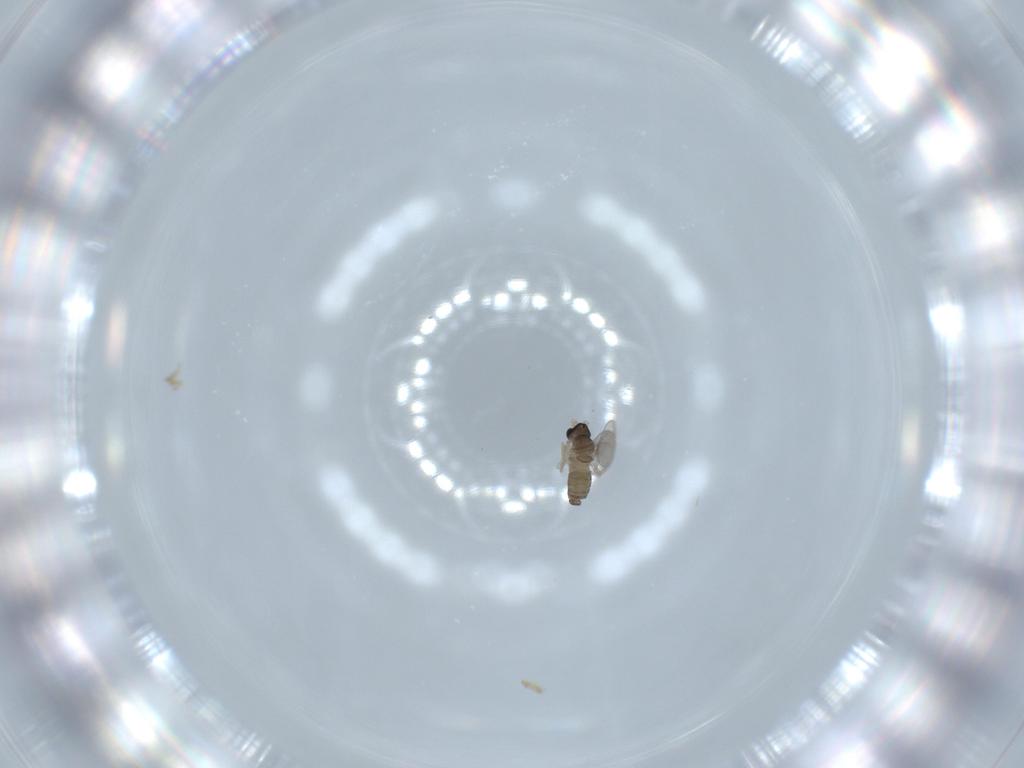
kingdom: Animalia
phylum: Arthropoda
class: Insecta
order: Diptera
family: Cecidomyiidae
